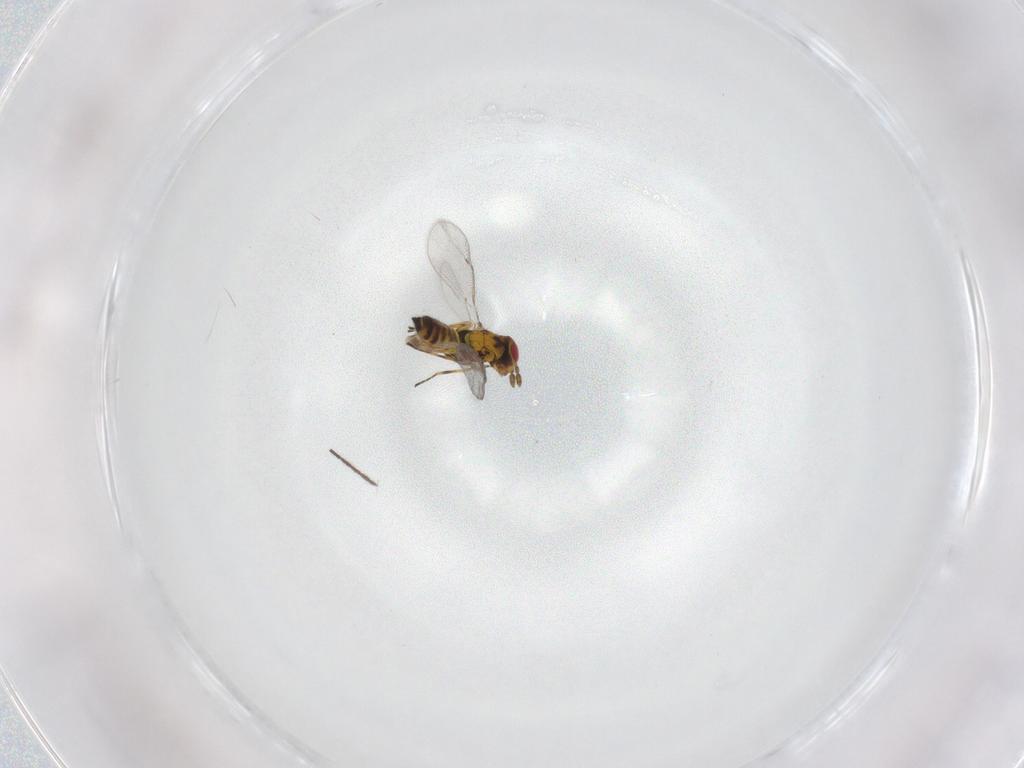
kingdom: Animalia
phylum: Arthropoda
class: Insecta
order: Hymenoptera
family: Eulophidae
